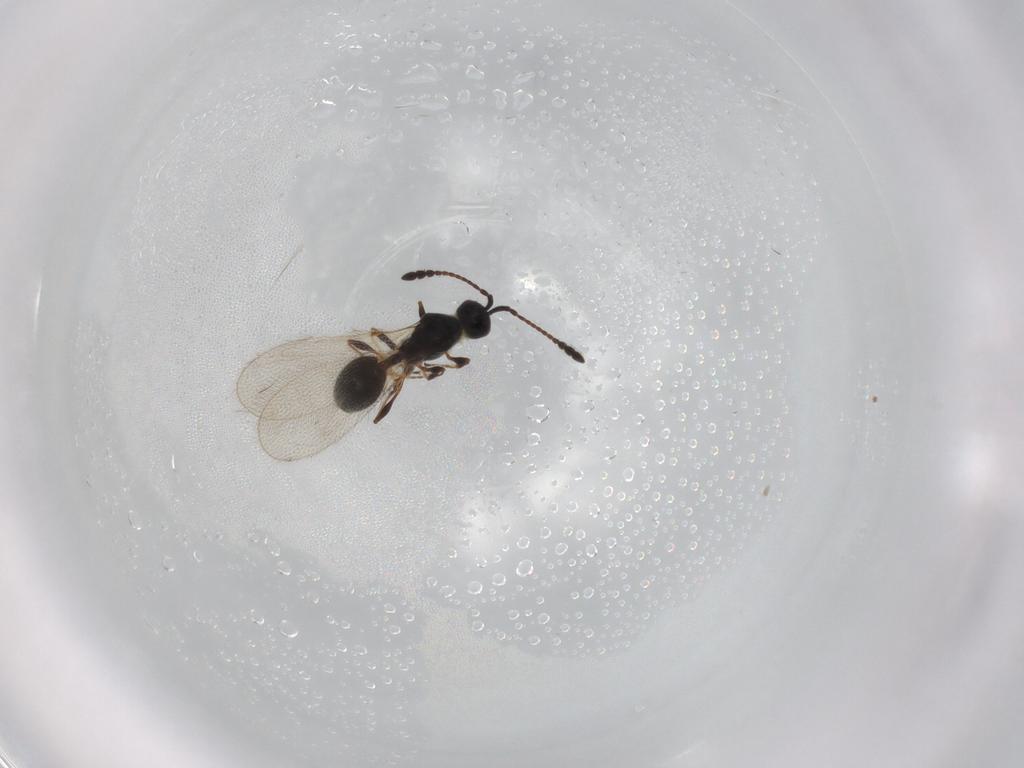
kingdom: Animalia
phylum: Arthropoda
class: Insecta
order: Hymenoptera
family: Diapriidae
